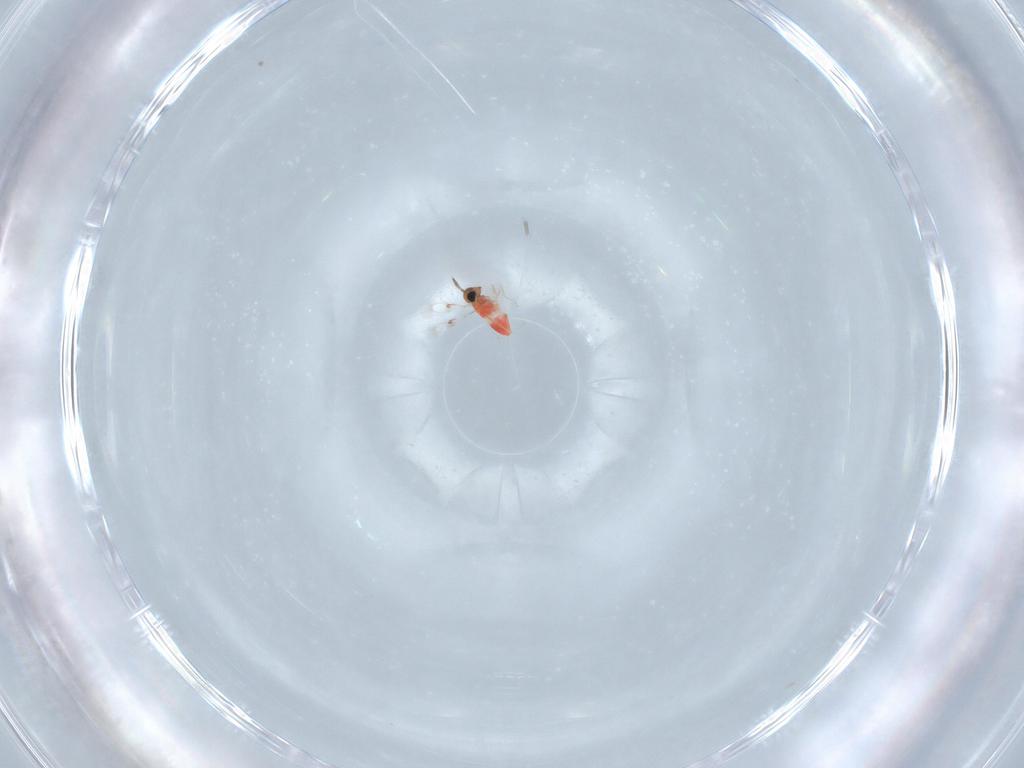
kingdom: Animalia
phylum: Arthropoda
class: Insecta
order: Hymenoptera
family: Trichogrammatidae
